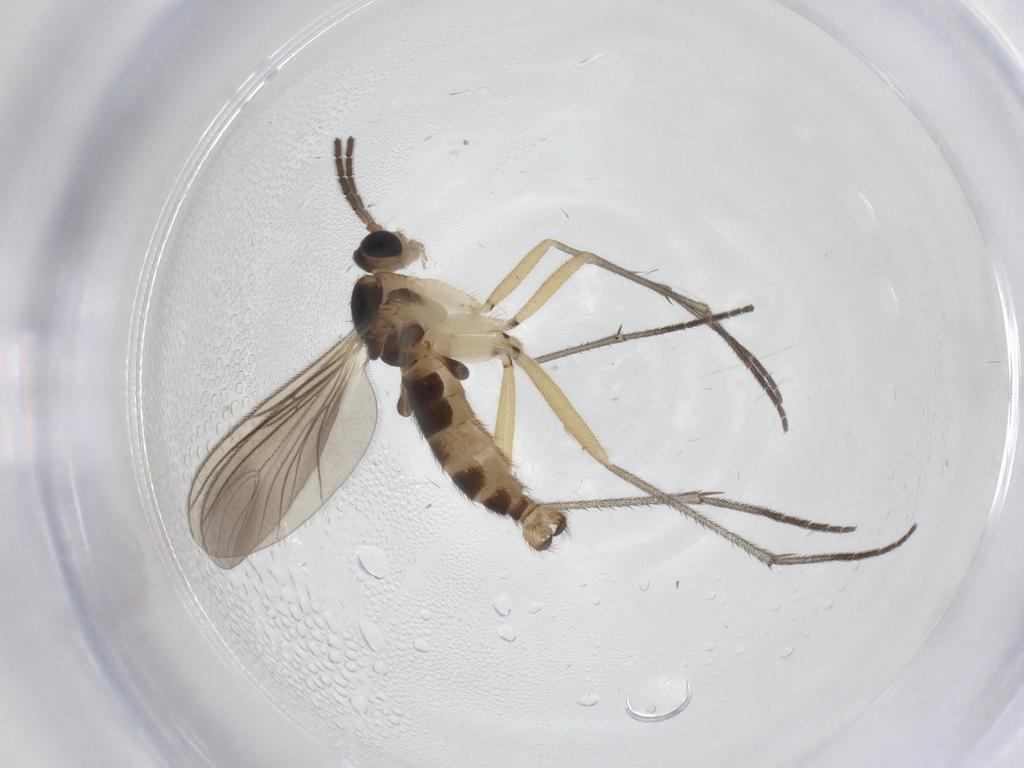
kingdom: Animalia
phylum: Arthropoda
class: Insecta
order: Diptera
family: Sciaridae
